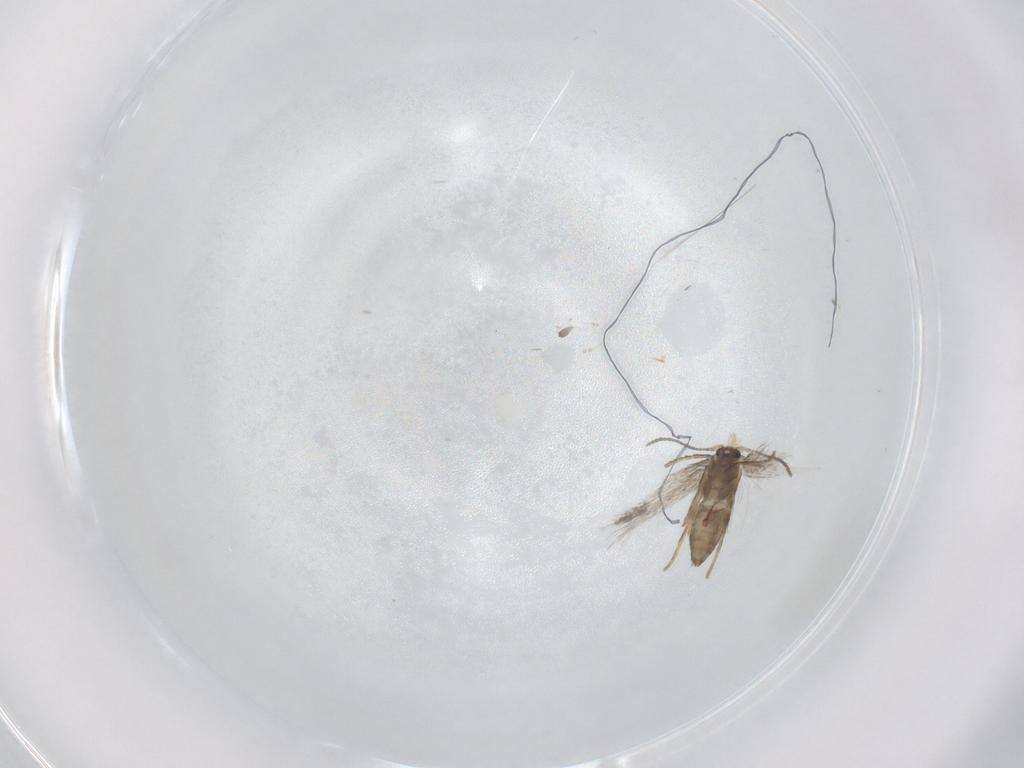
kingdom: Animalia
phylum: Arthropoda
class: Insecta
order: Lepidoptera
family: Nepticulidae
